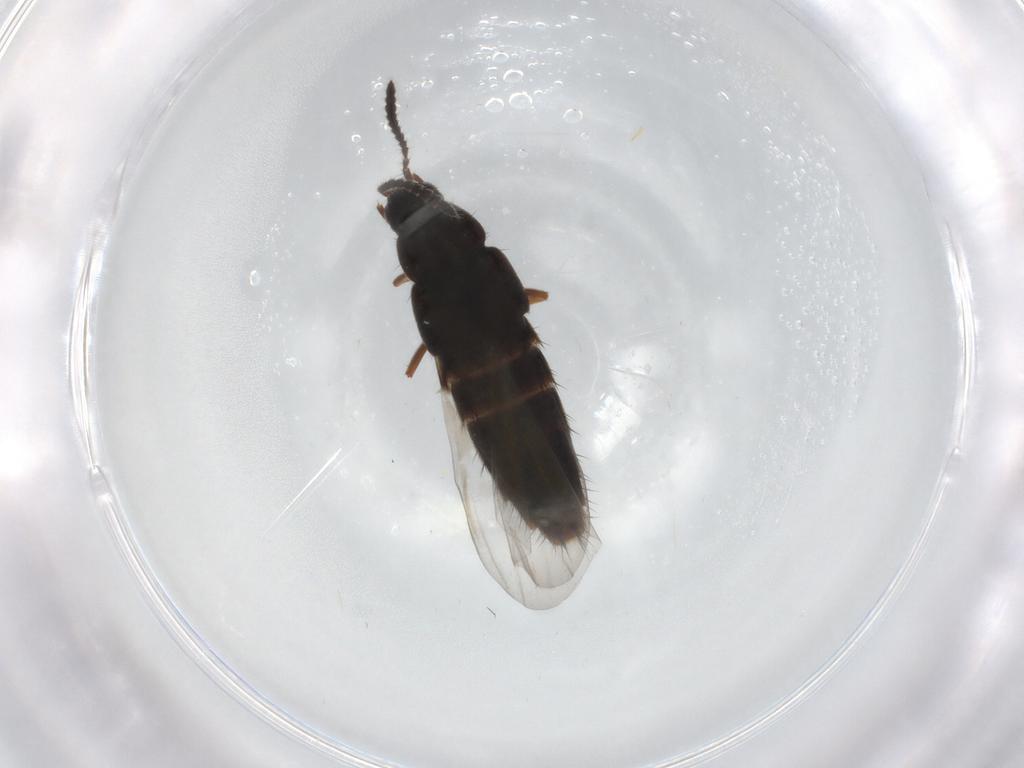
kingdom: Animalia
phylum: Arthropoda
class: Insecta
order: Coleoptera
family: Staphylinidae
